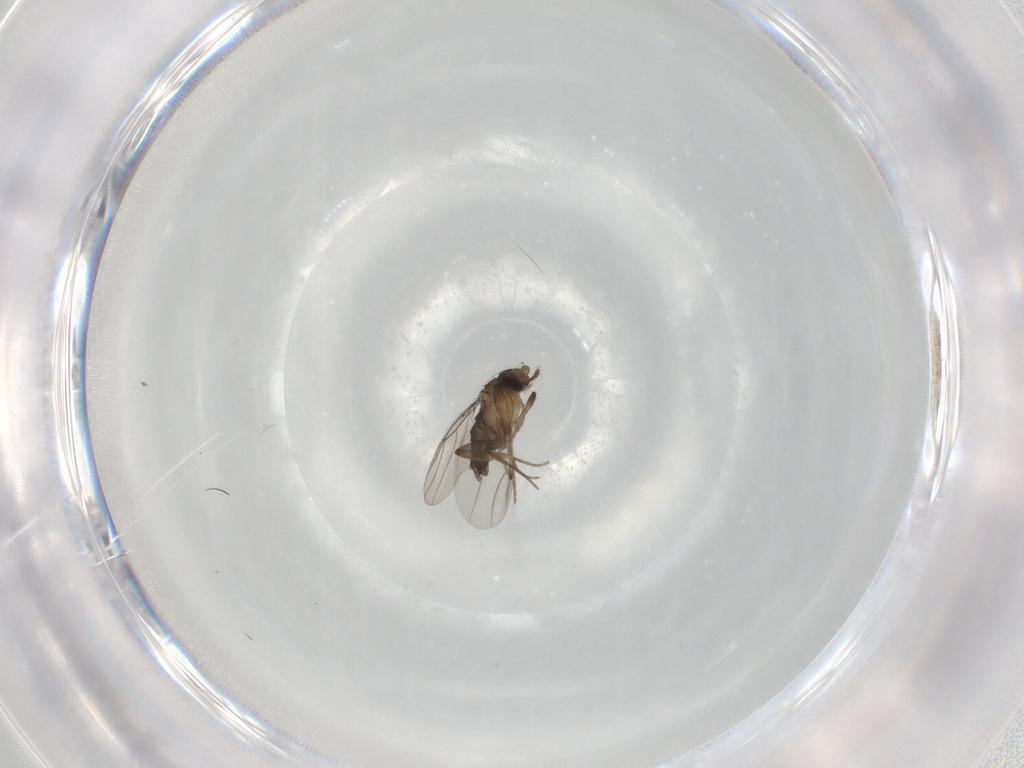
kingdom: Animalia
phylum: Arthropoda
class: Insecta
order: Diptera
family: Phoridae
